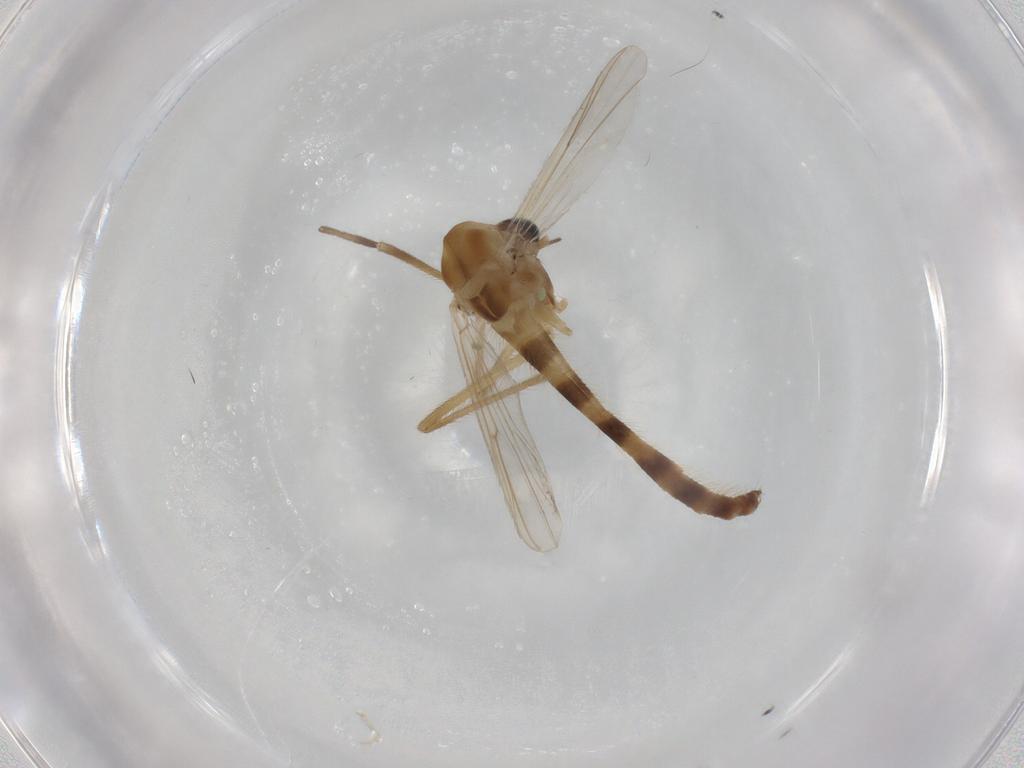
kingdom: Animalia
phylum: Arthropoda
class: Insecta
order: Diptera
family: Chironomidae
